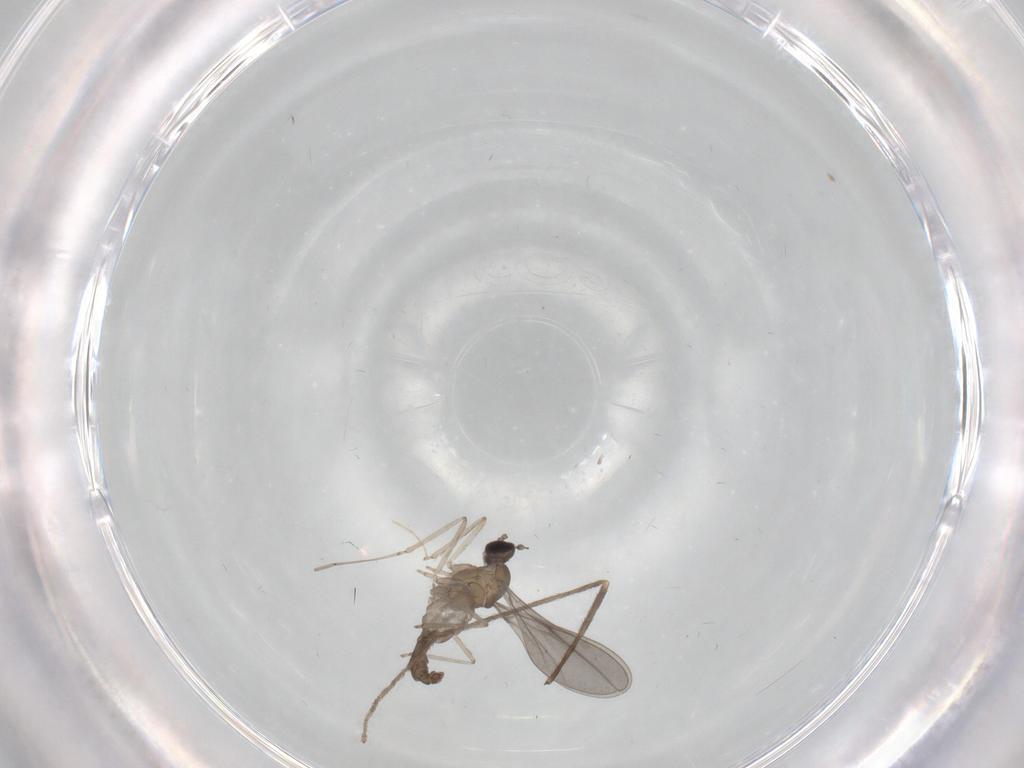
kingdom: Animalia
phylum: Arthropoda
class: Insecta
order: Diptera
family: Cecidomyiidae
